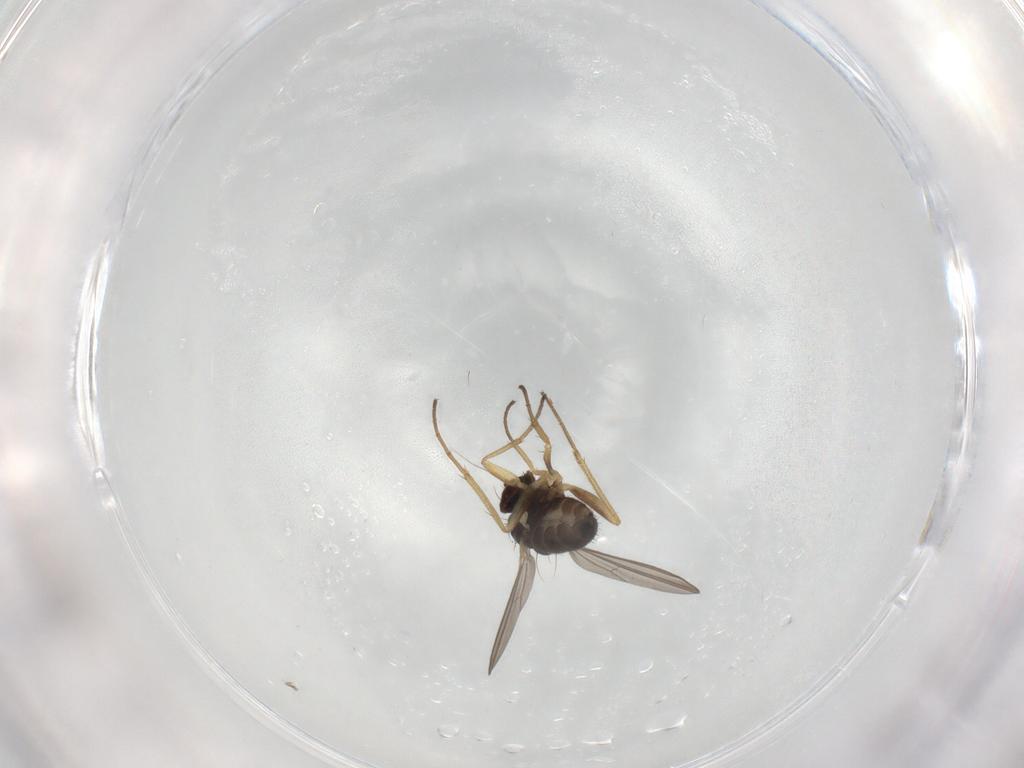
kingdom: Animalia
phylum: Arthropoda
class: Insecta
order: Diptera
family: Dolichopodidae
